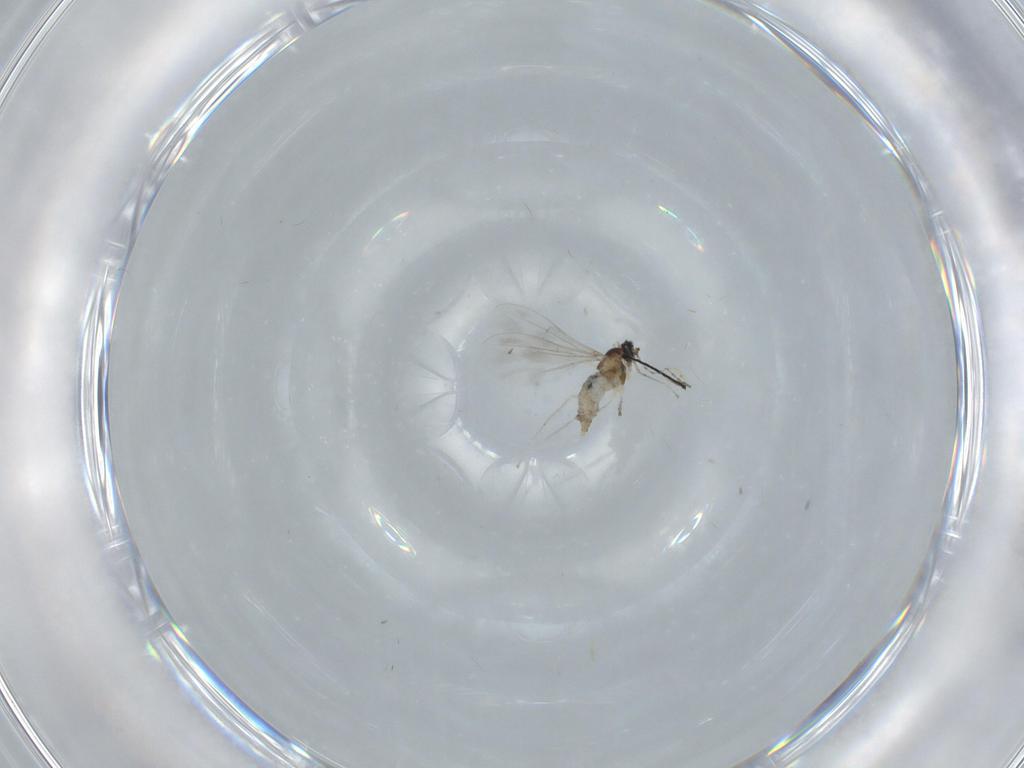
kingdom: Animalia
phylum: Arthropoda
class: Insecta
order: Diptera
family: Cecidomyiidae
